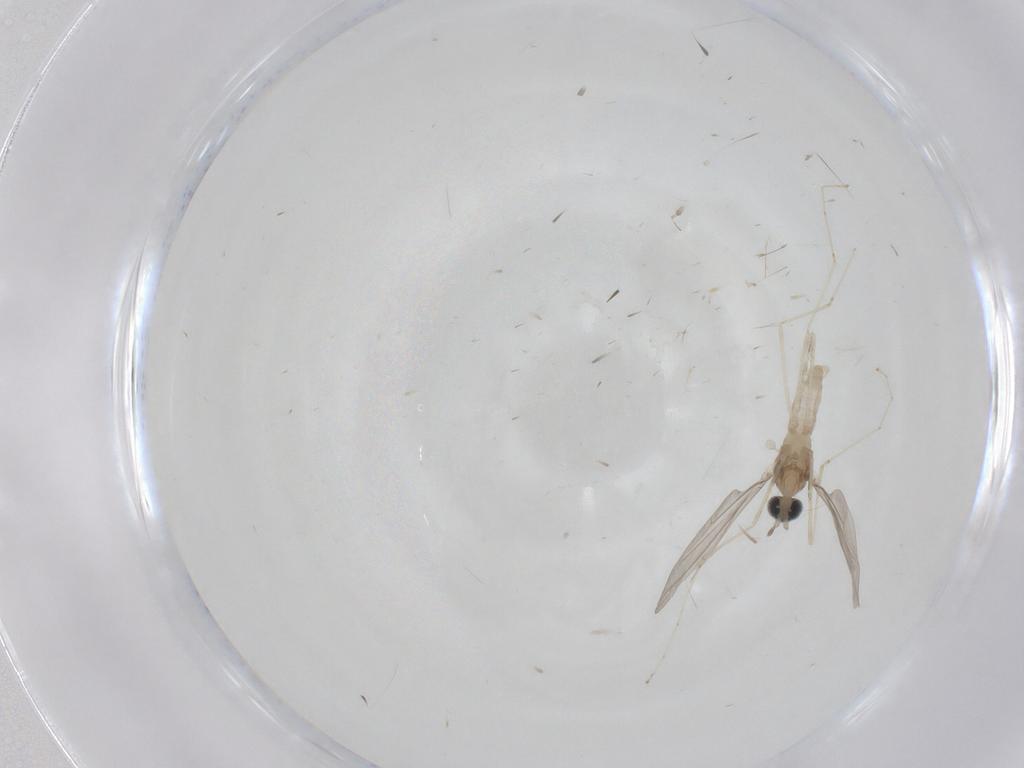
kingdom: Animalia
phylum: Arthropoda
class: Insecta
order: Diptera
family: Cecidomyiidae
